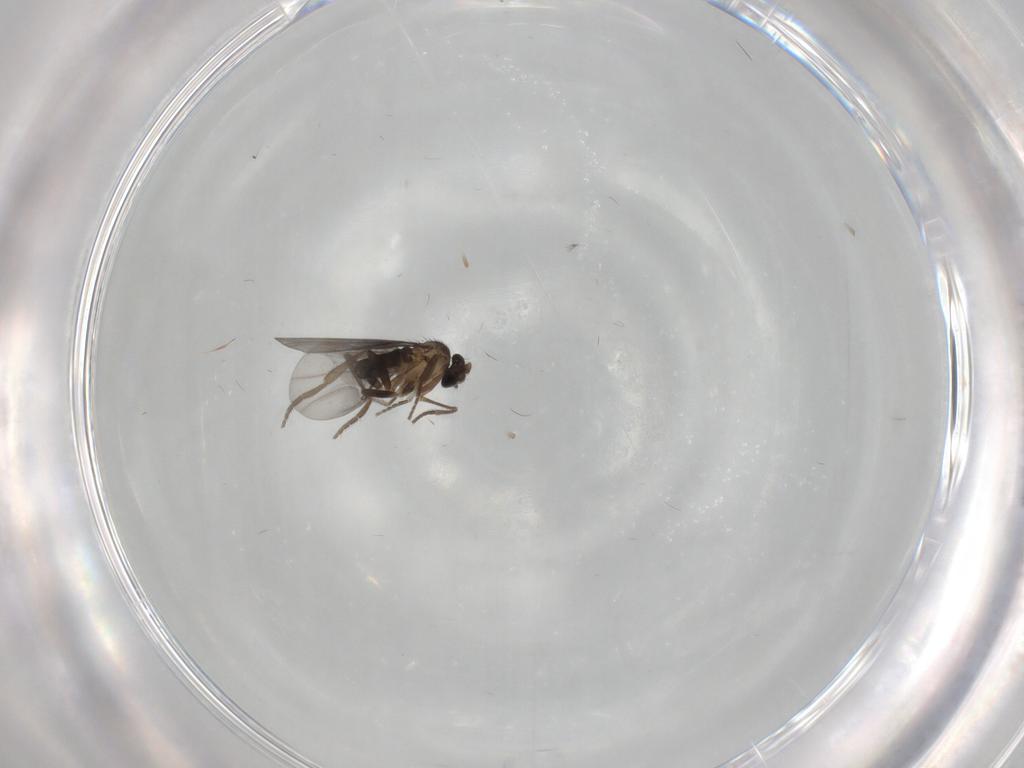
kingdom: Animalia
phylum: Arthropoda
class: Insecta
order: Diptera
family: Phoridae
